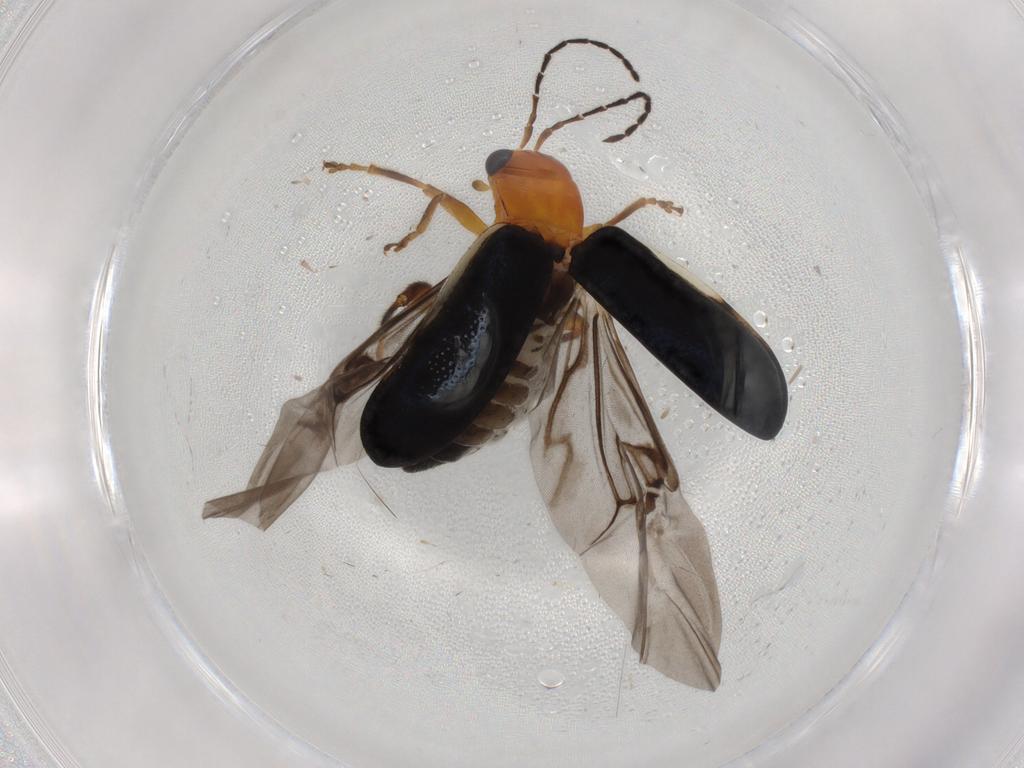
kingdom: Animalia
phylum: Arthropoda
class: Insecta
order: Coleoptera
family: Chrysomelidae
